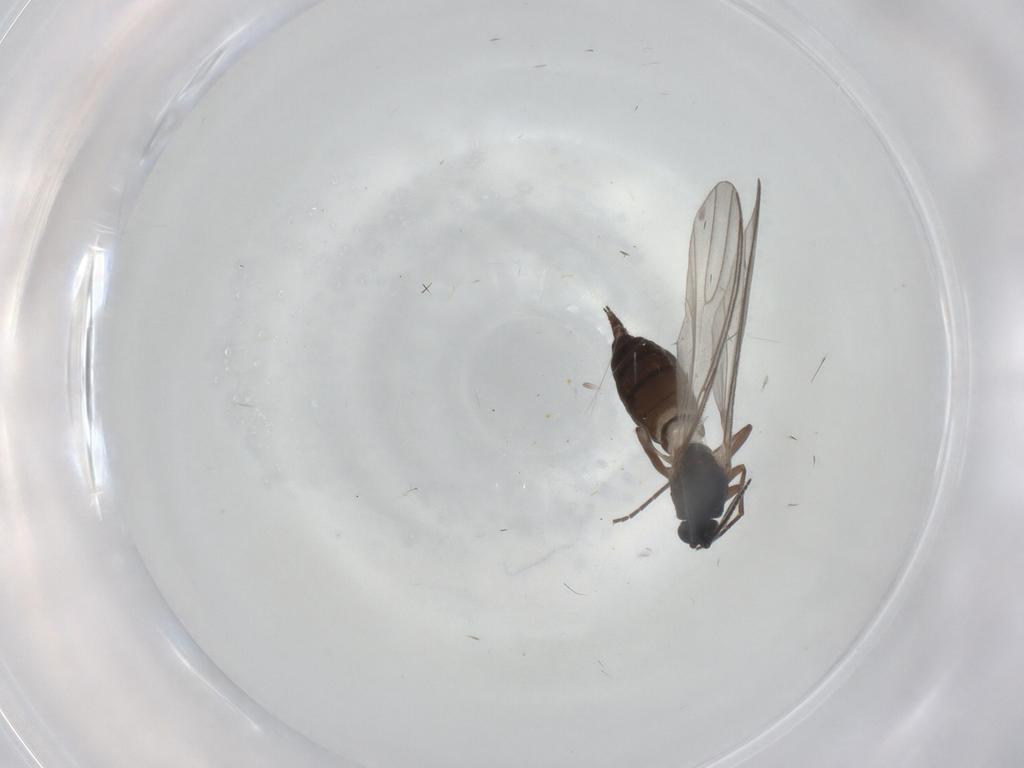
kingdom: Animalia
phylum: Arthropoda
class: Insecta
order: Diptera
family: Sciaridae
